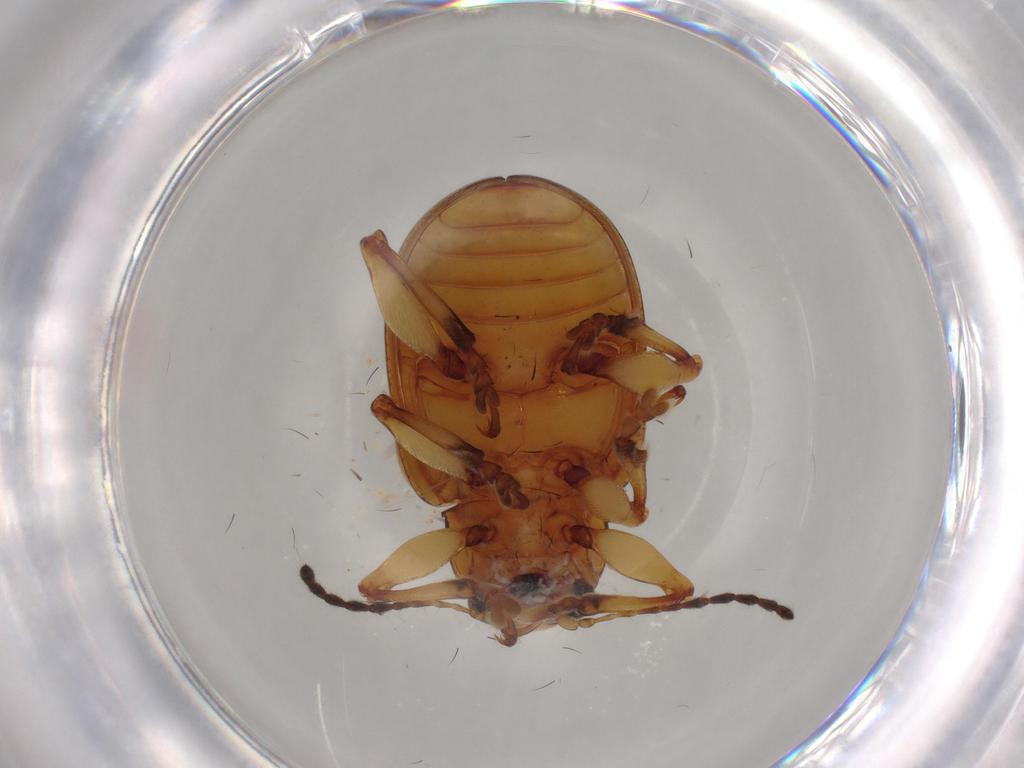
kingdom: Animalia
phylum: Arthropoda
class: Insecta
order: Coleoptera
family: Chrysomelidae
